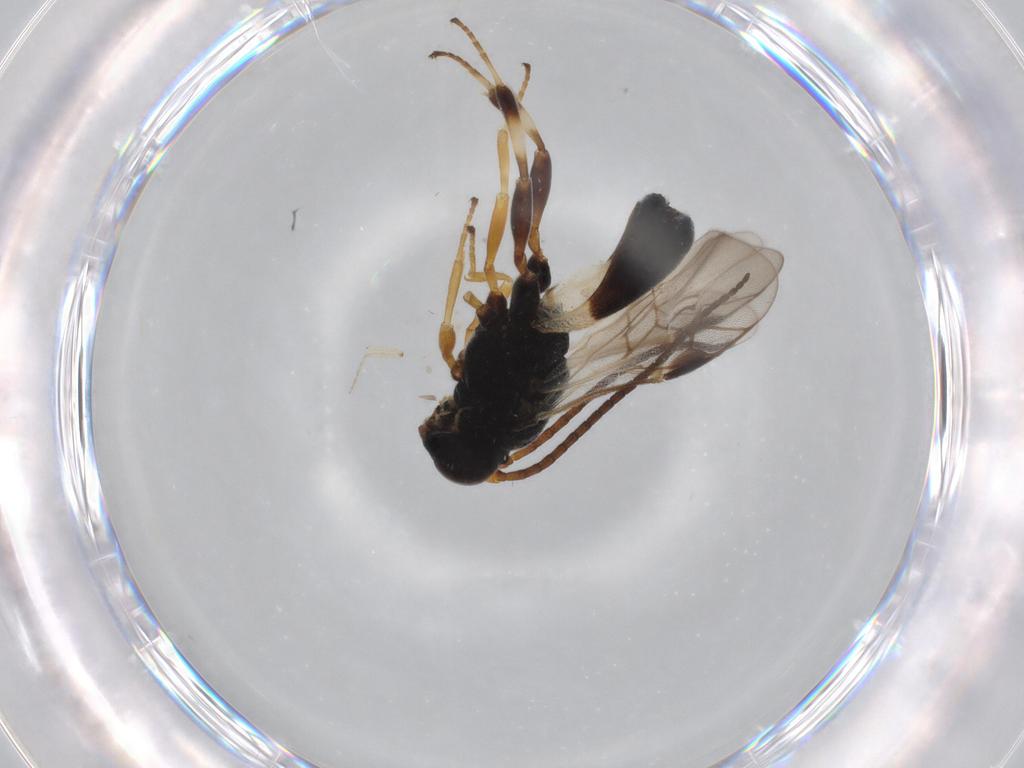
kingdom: Animalia
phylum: Arthropoda
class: Insecta
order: Hymenoptera
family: Braconidae
